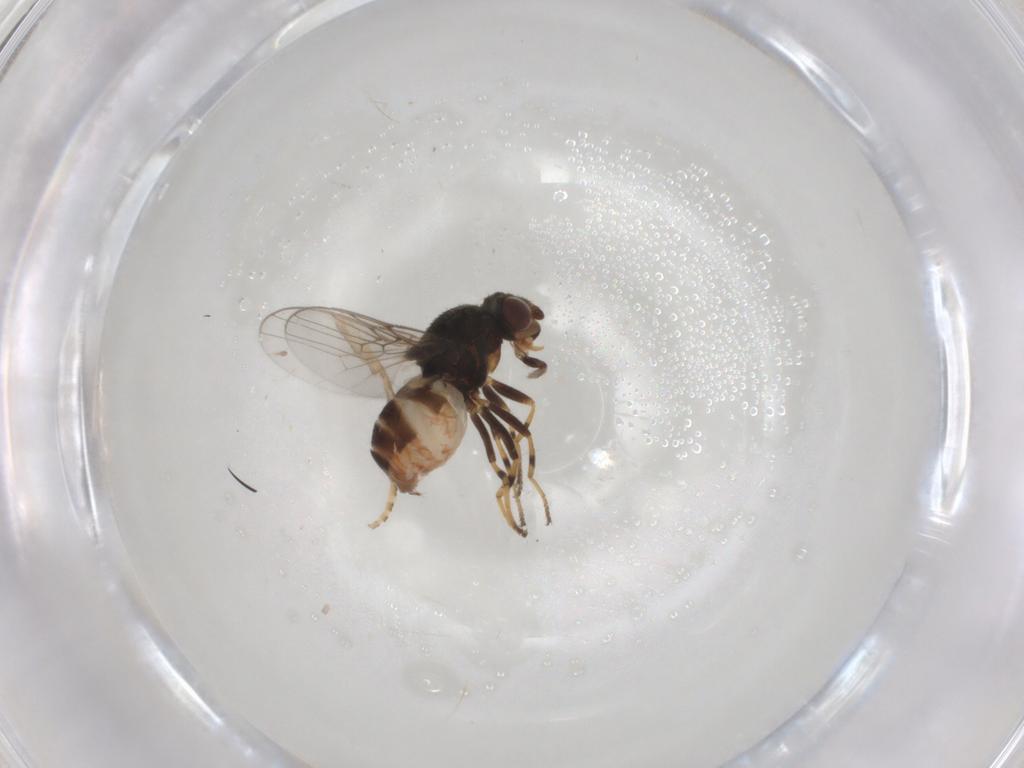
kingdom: Animalia
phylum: Arthropoda
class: Insecta
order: Diptera
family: Chloropidae
